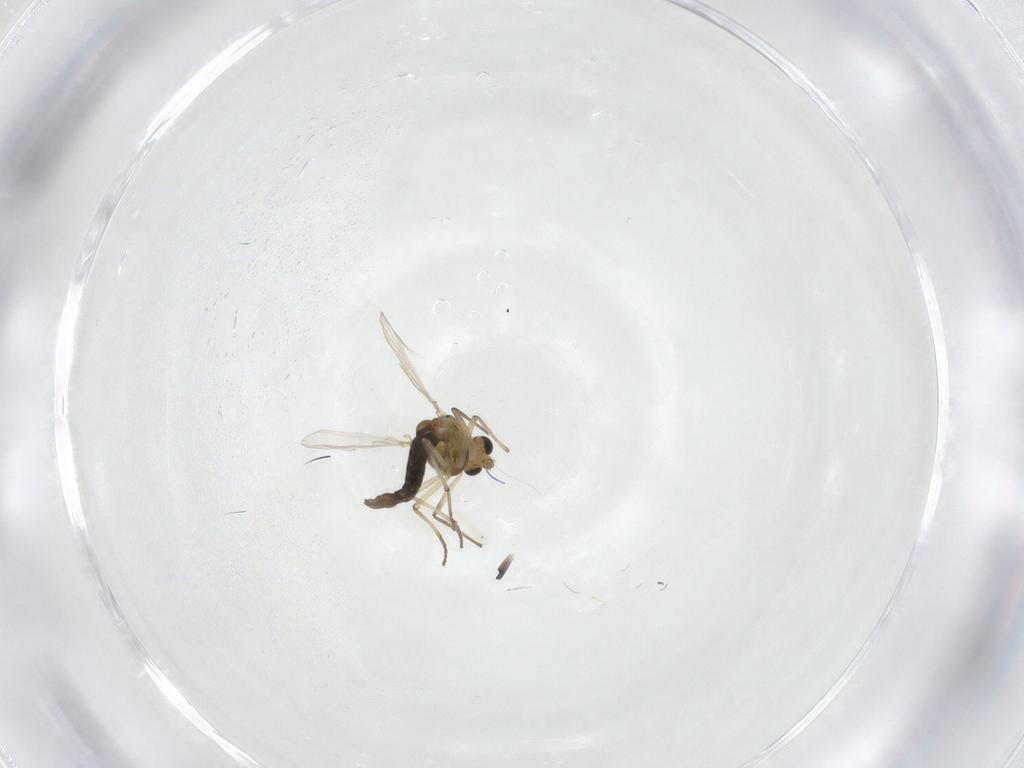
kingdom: Animalia
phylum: Arthropoda
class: Insecta
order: Diptera
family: Chironomidae
